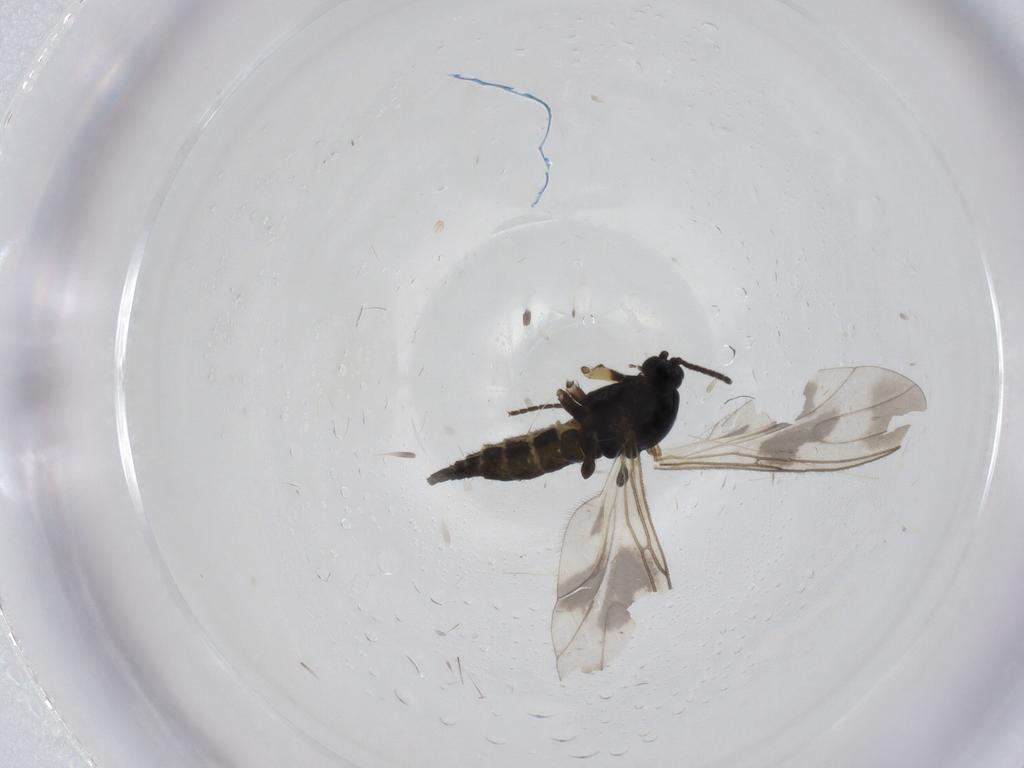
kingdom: Animalia
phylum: Arthropoda
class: Insecta
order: Diptera
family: Sciaridae
